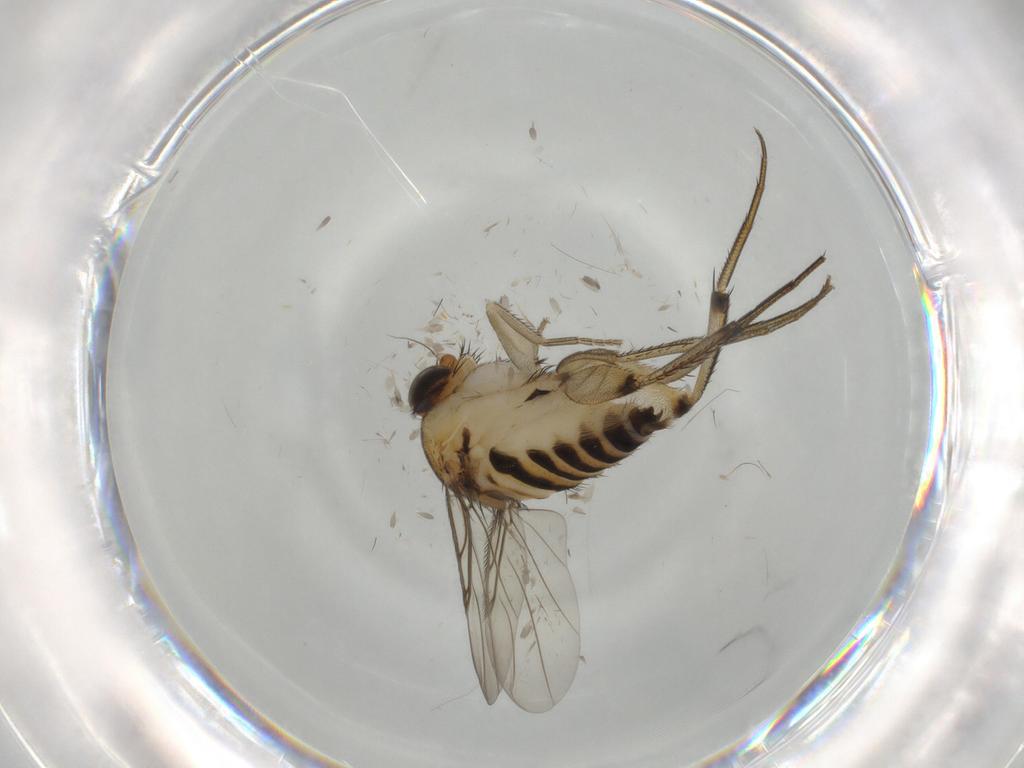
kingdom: Animalia
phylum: Arthropoda
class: Insecta
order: Diptera
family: Phoridae
